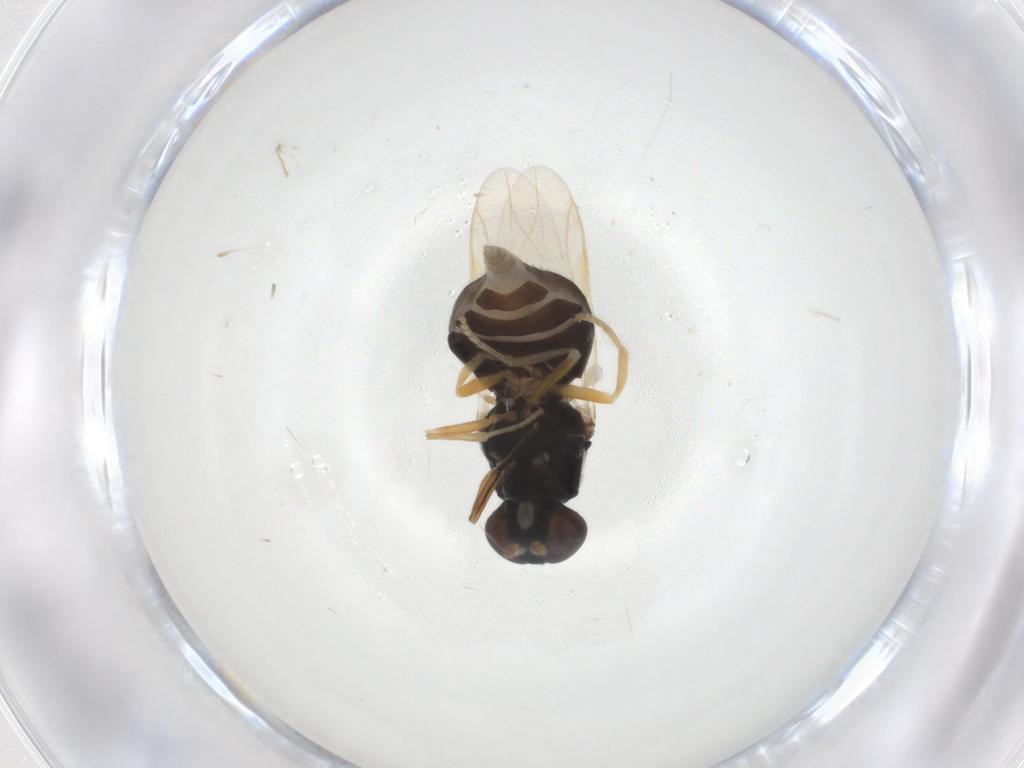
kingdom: Animalia
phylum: Arthropoda
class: Insecta
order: Diptera
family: Stratiomyidae
